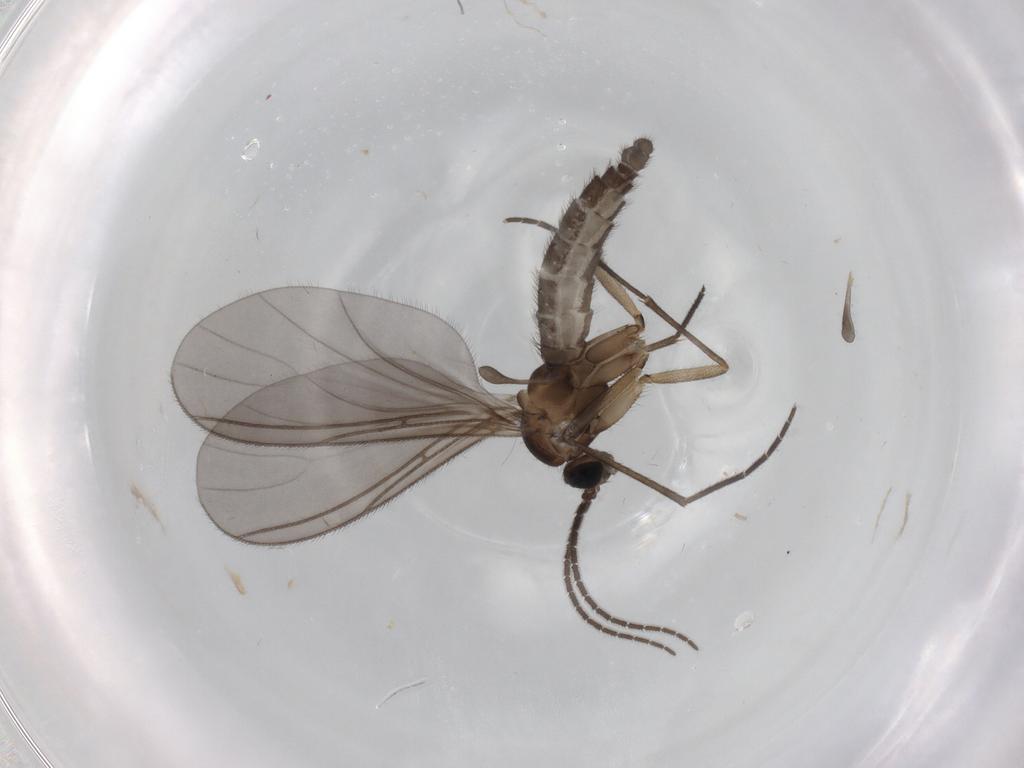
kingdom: Animalia
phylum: Arthropoda
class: Insecta
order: Diptera
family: Sciaridae
